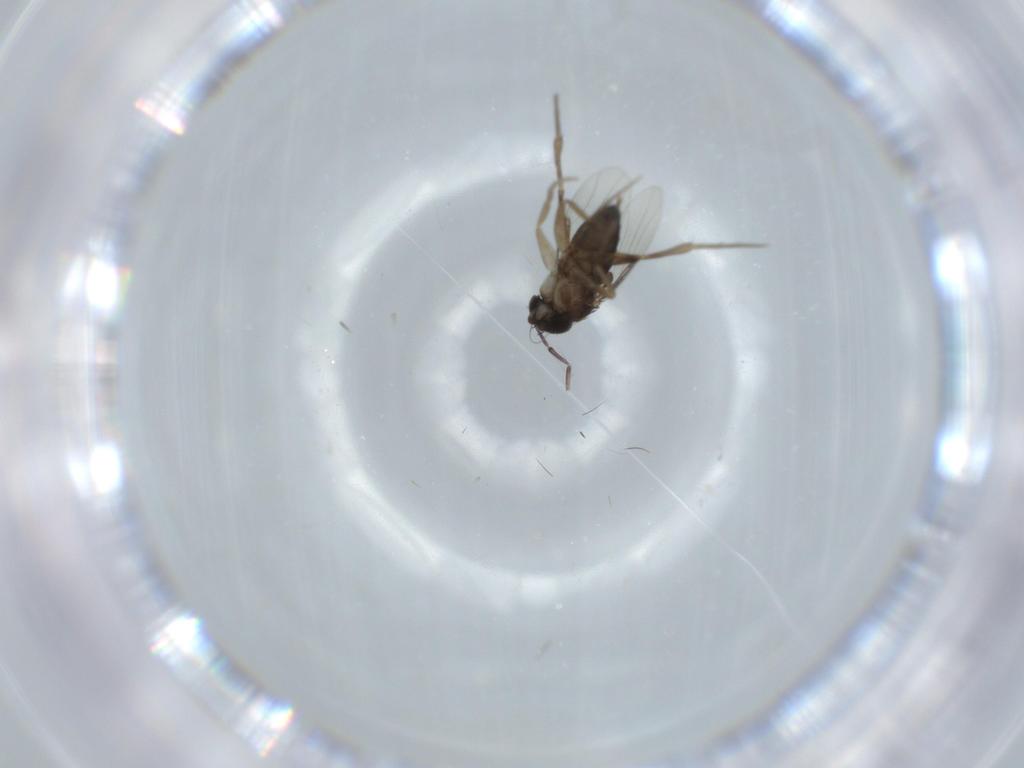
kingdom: Animalia
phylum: Arthropoda
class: Insecta
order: Diptera
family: Phoridae
